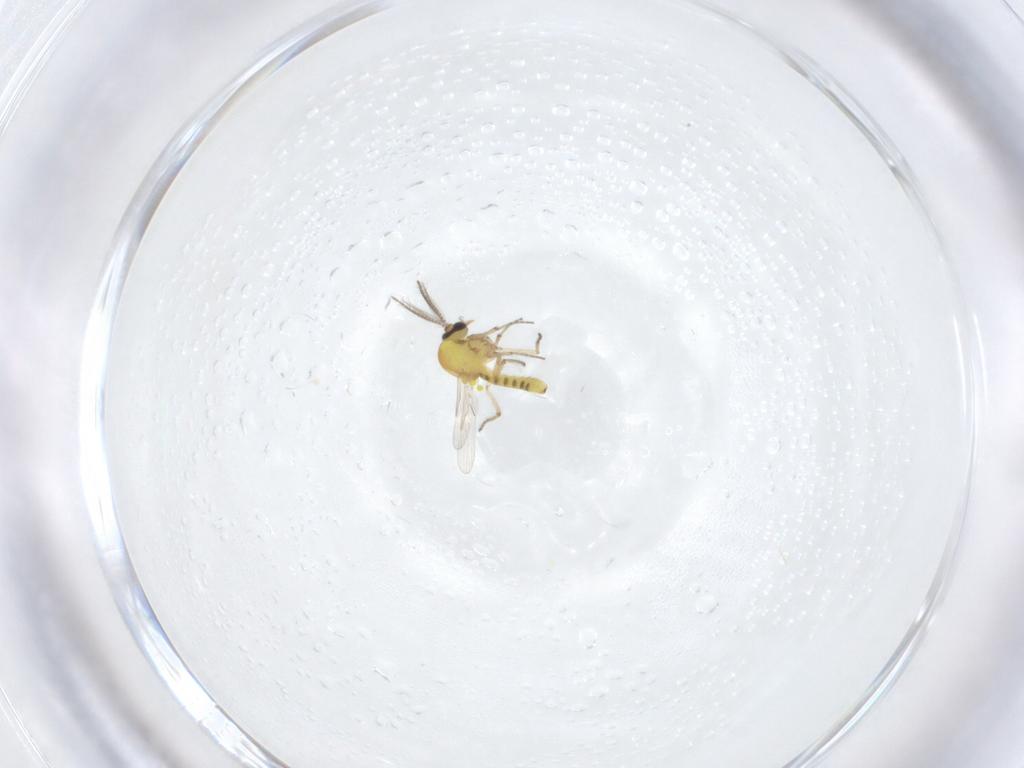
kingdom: Animalia
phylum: Arthropoda
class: Insecta
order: Diptera
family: Ceratopogonidae
